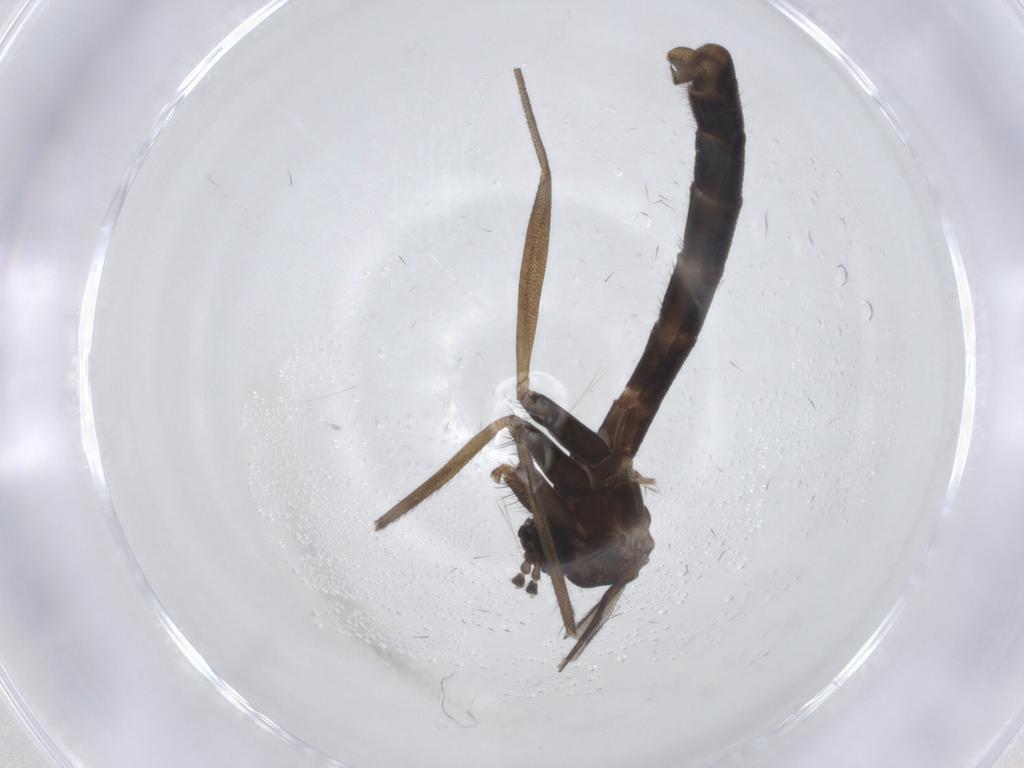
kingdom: Animalia
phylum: Arthropoda
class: Insecta
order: Diptera
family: Tachinidae
